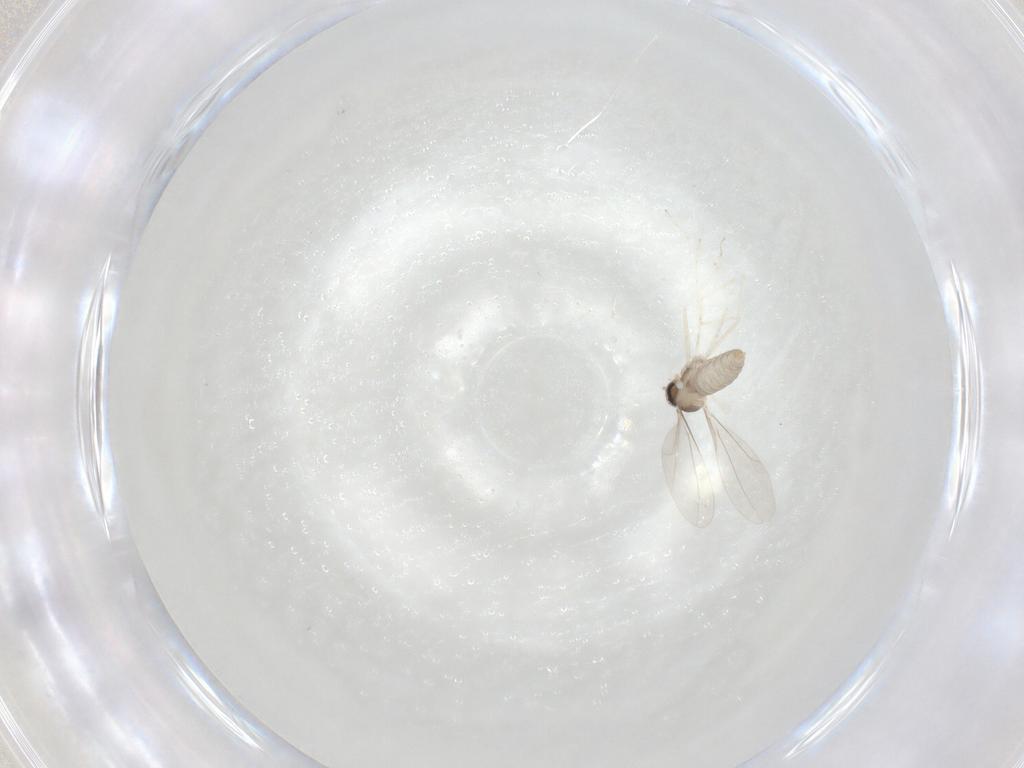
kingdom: Animalia
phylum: Arthropoda
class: Insecta
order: Diptera
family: Cecidomyiidae
